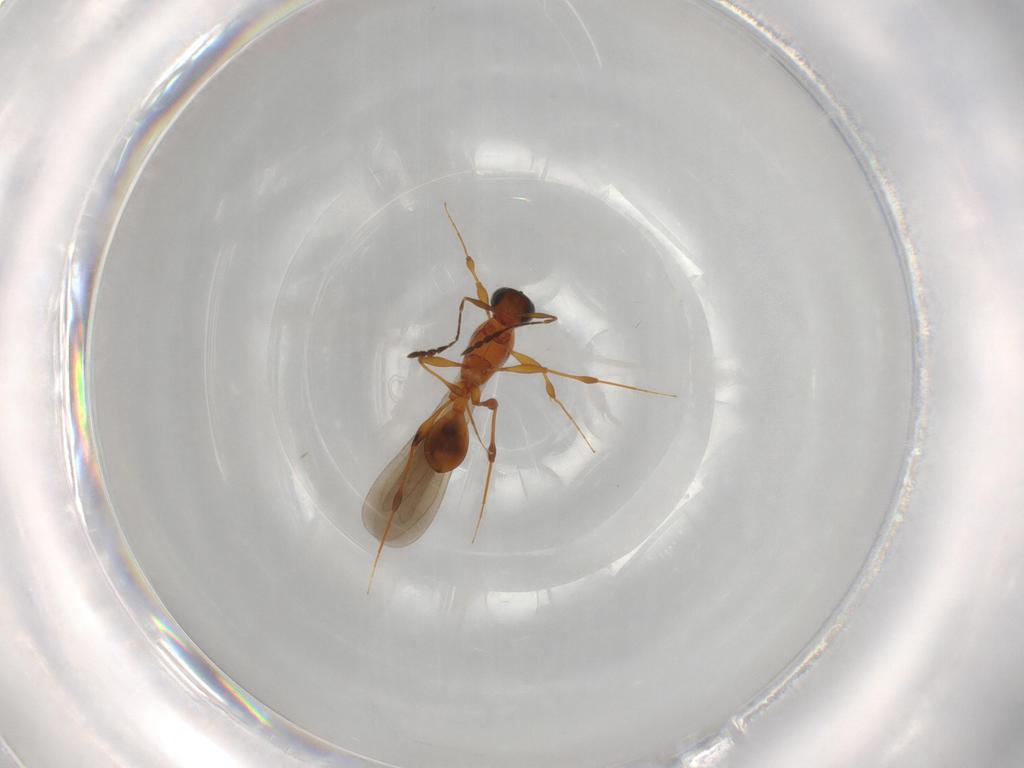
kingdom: Animalia
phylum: Arthropoda
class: Insecta
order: Hymenoptera
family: Platygastridae
